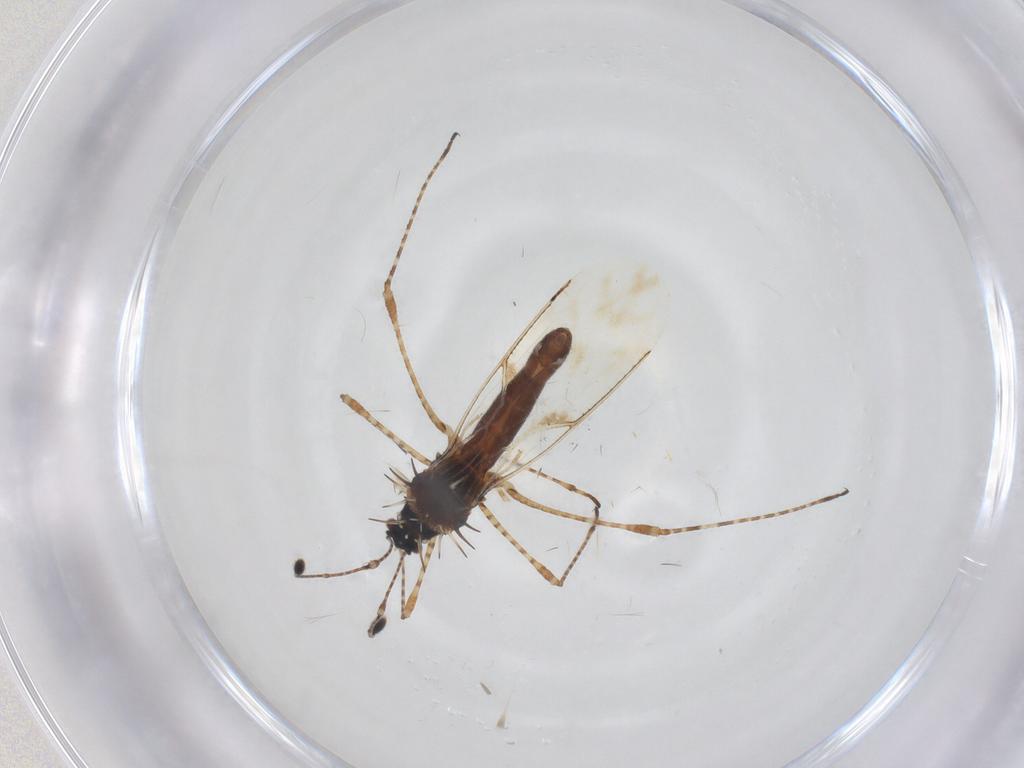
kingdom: Animalia
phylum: Arthropoda
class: Insecta
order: Hemiptera
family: Berytidae
